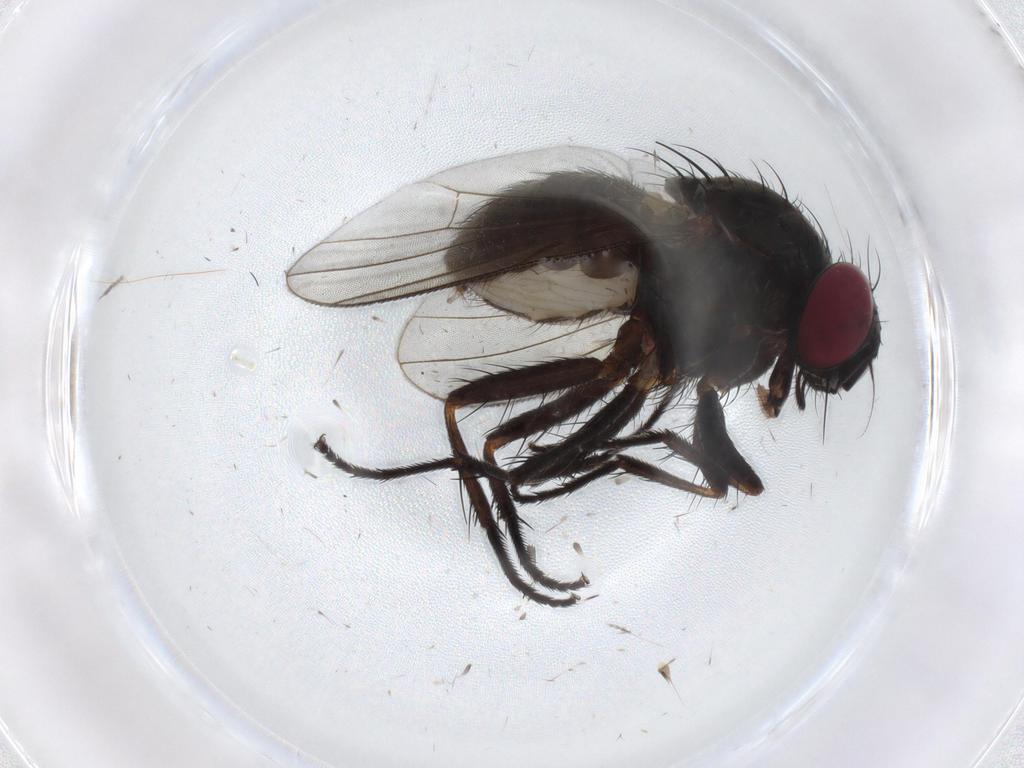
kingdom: Animalia
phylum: Arthropoda
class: Insecta
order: Diptera
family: Muscidae
